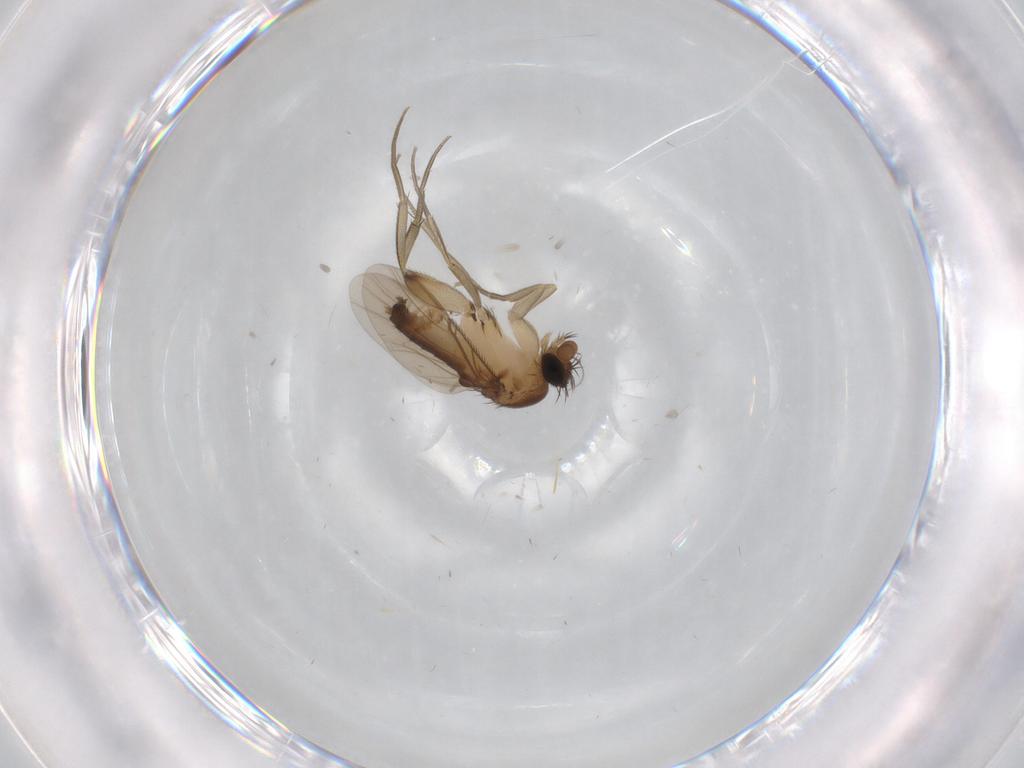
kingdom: Animalia
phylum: Arthropoda
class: Insecta
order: Diptera
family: Phoridae
